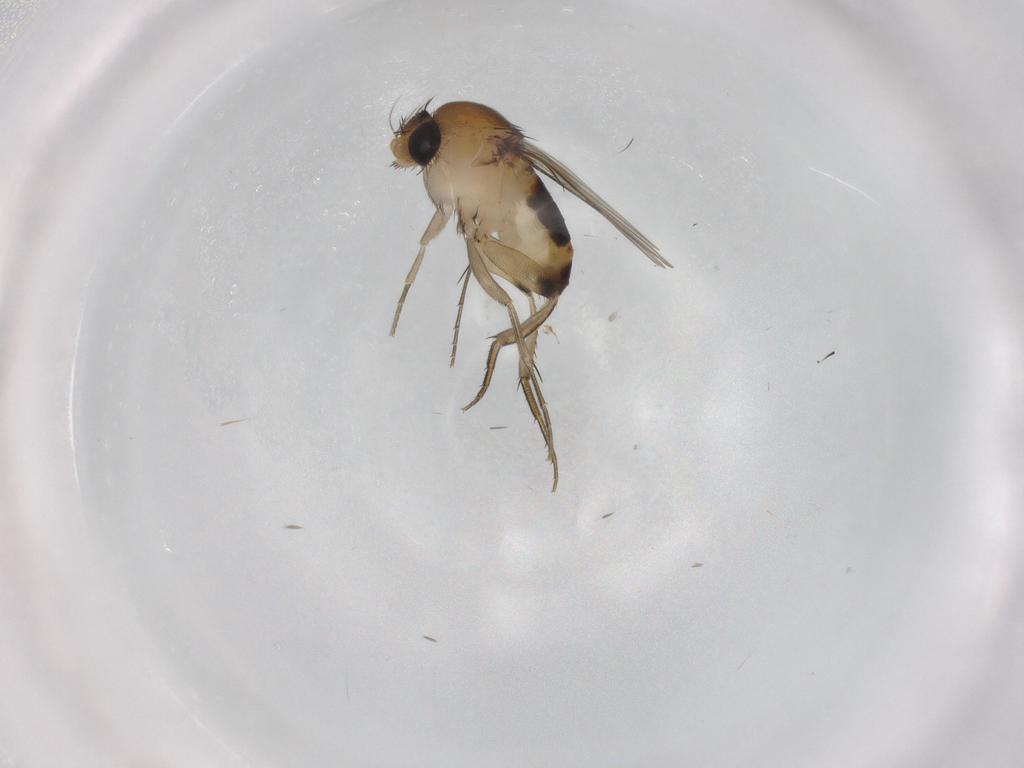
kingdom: Animalia
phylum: Arthropoda
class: Insecta
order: Diptera
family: Phoridae
